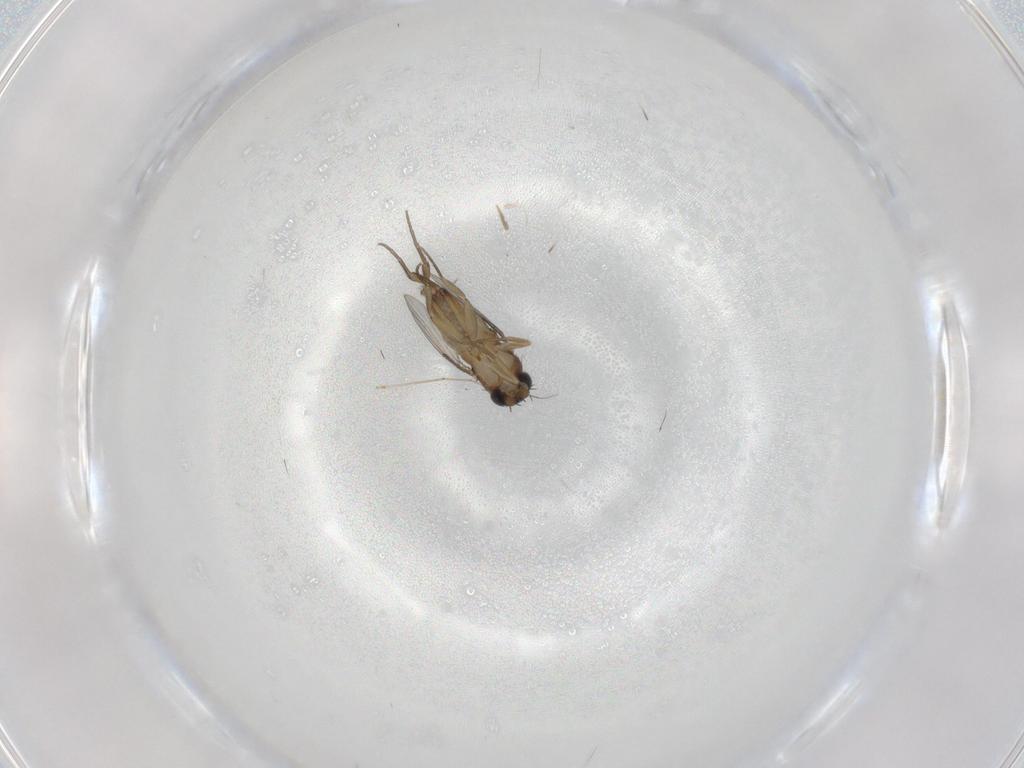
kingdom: Animalia
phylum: Arthropoda
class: Insecta
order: Diptera
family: Phoridae
